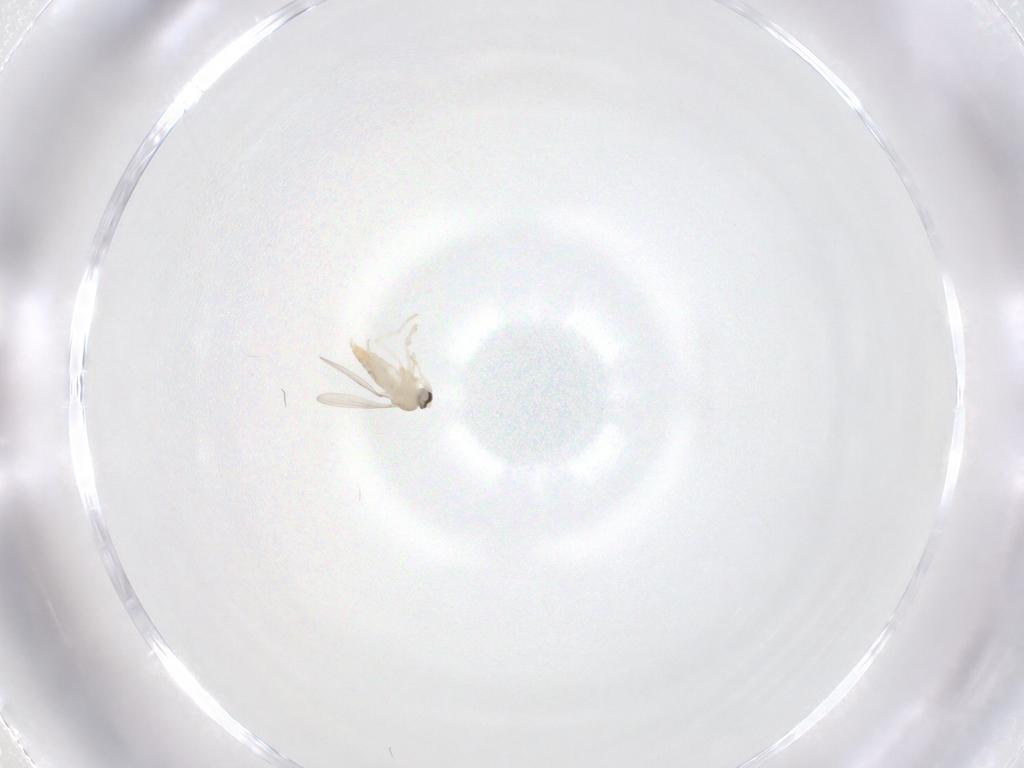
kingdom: Animalia
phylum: Arthropoda
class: Insecta
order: Diptera
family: Cecidomyiidae
